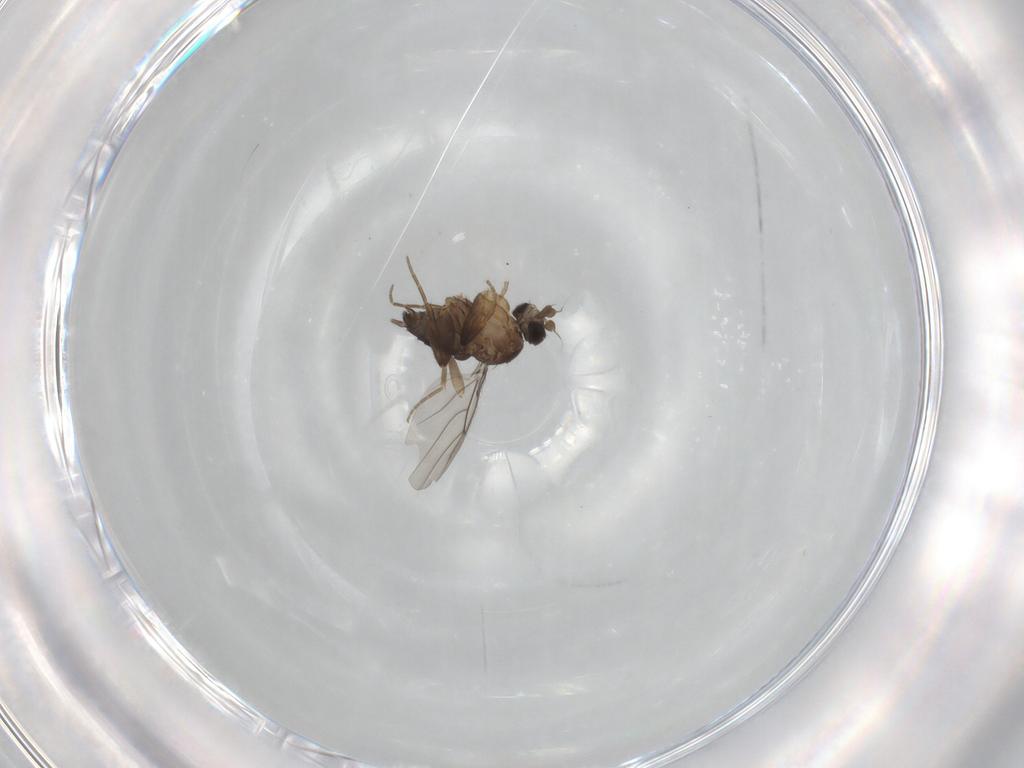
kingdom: Animalia
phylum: Arthropoda
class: Insecta
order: Diptera
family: Phoridae
